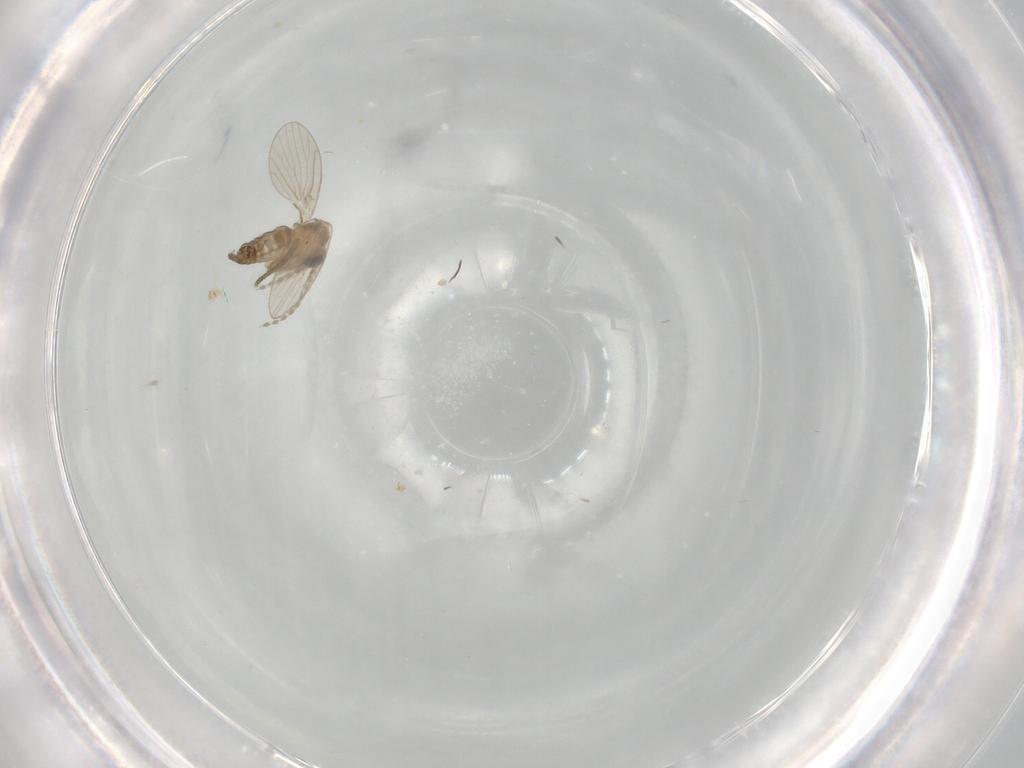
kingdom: Animalia
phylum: Arthropoda
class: Insecta
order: Diptera
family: Psychodidae
